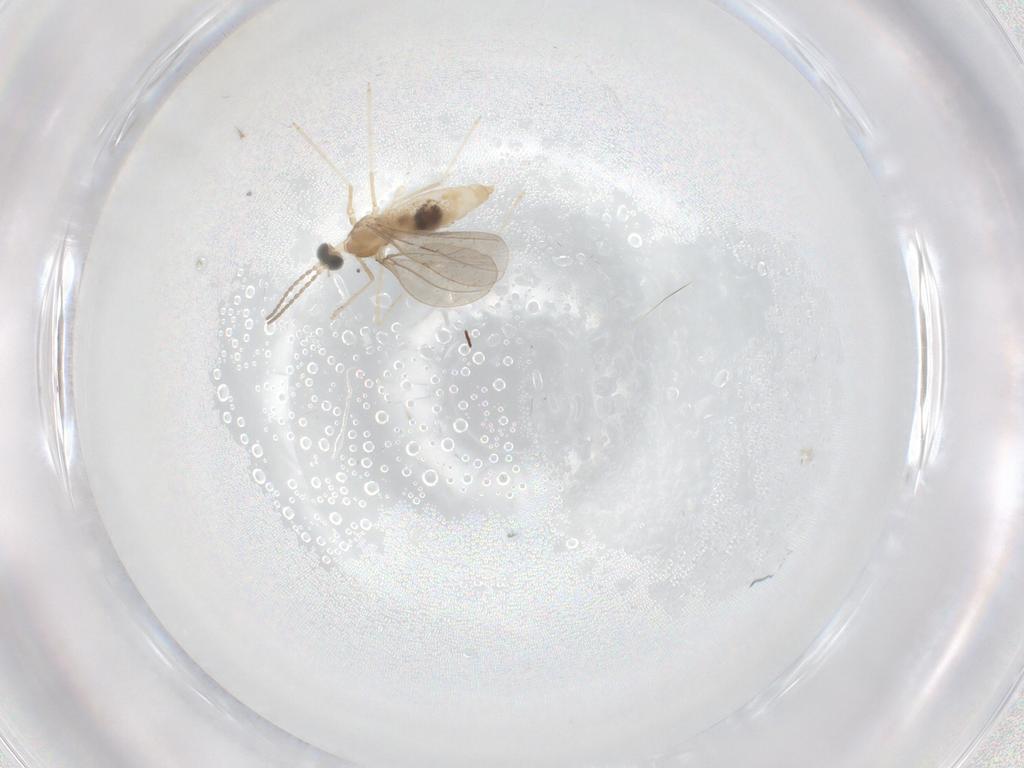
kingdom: Animalia
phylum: Arthropoda
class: Insecta
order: Diptera
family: Cecidomyiidae
